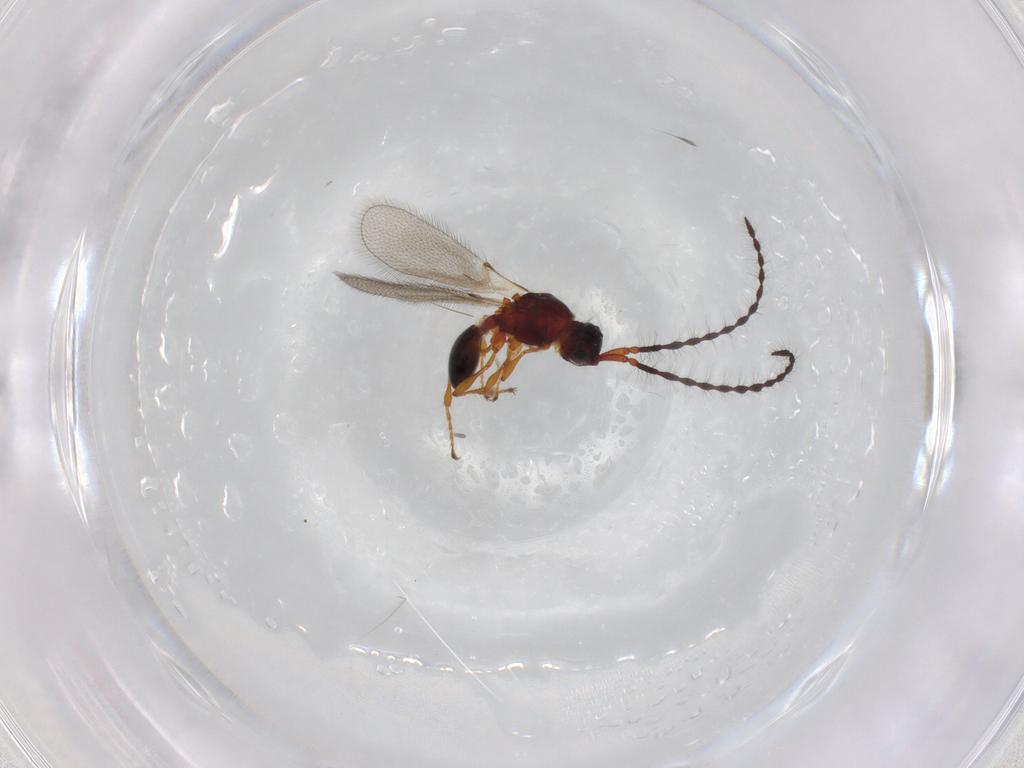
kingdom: Animalia
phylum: Arthropoda
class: Insecta
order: Hymenoptera
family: Diapriidae
